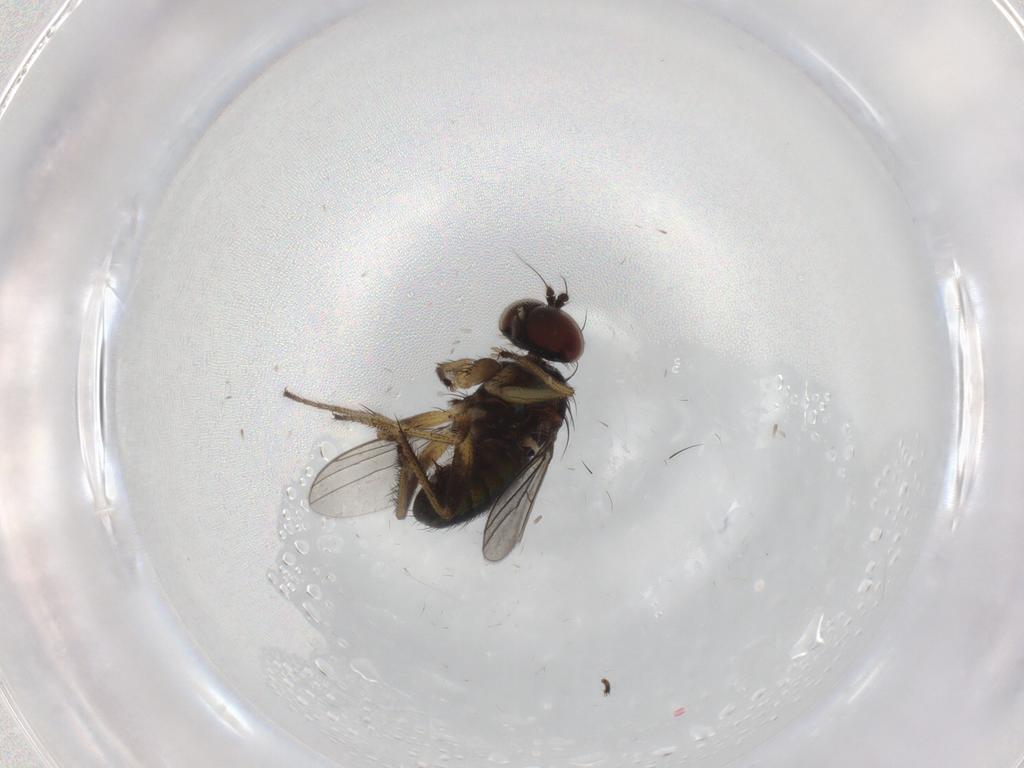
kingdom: Animalia
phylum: Arthropoda
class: Insecta
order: Diptera
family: Dolichopodidae
